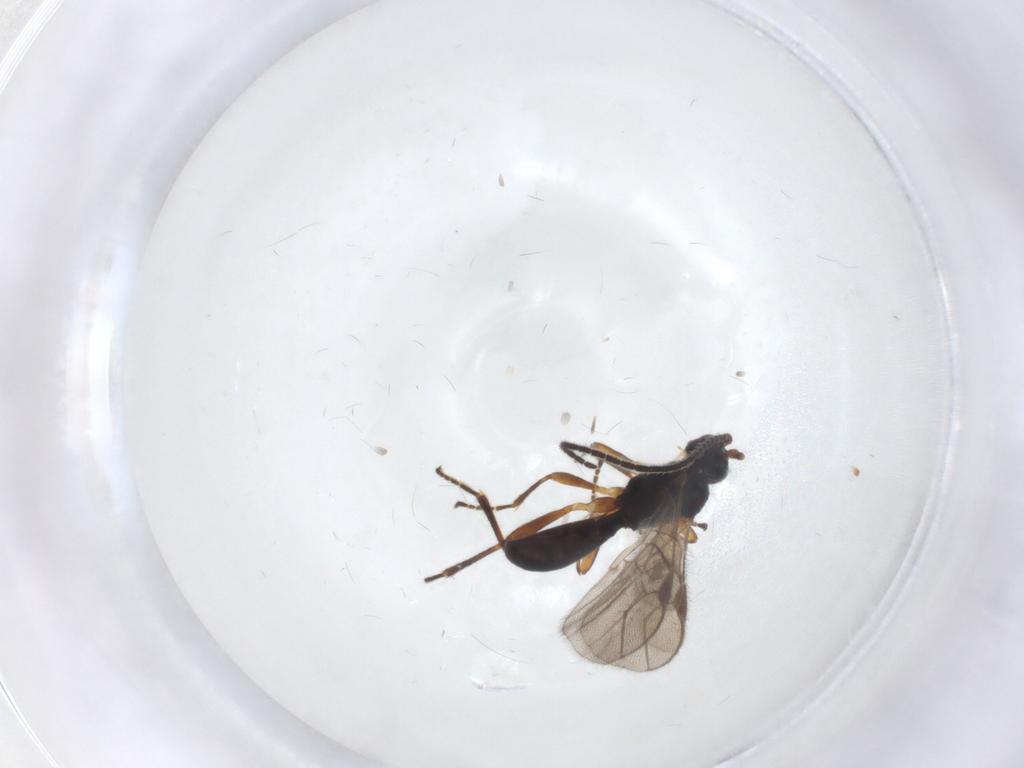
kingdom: Animalia
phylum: Arthropoda
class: Insecta
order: Hymenoptera
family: Braconidae
